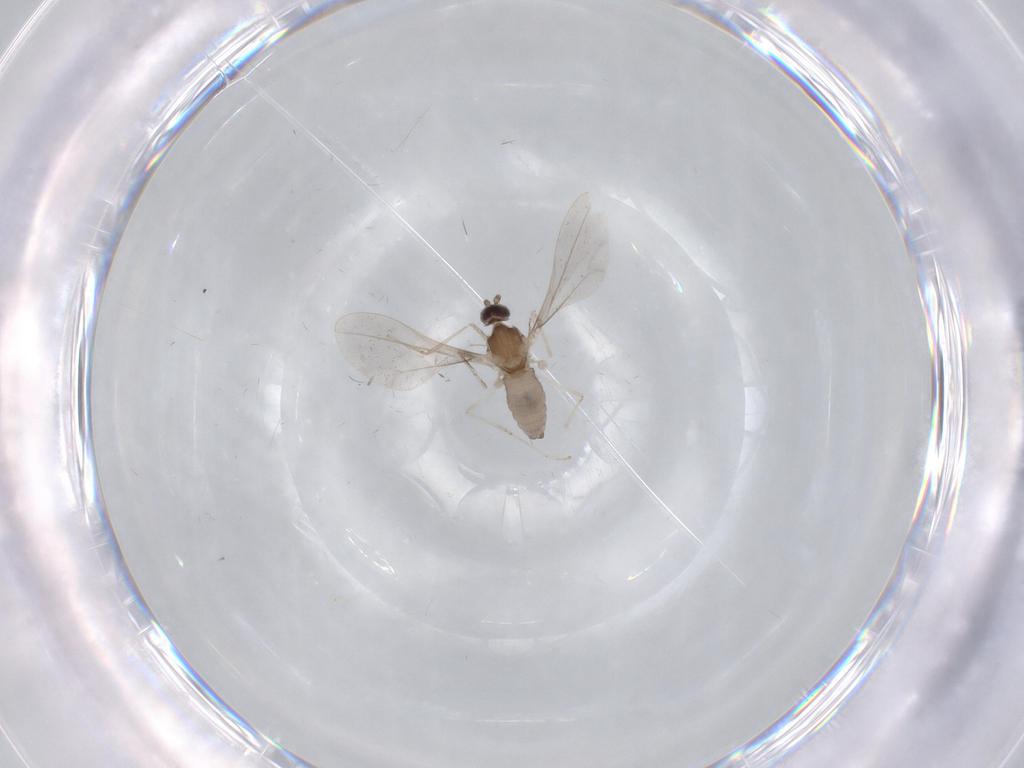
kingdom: Animalia
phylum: Arthropoda
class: Insecta
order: Diptera
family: Cecidomyiidae
